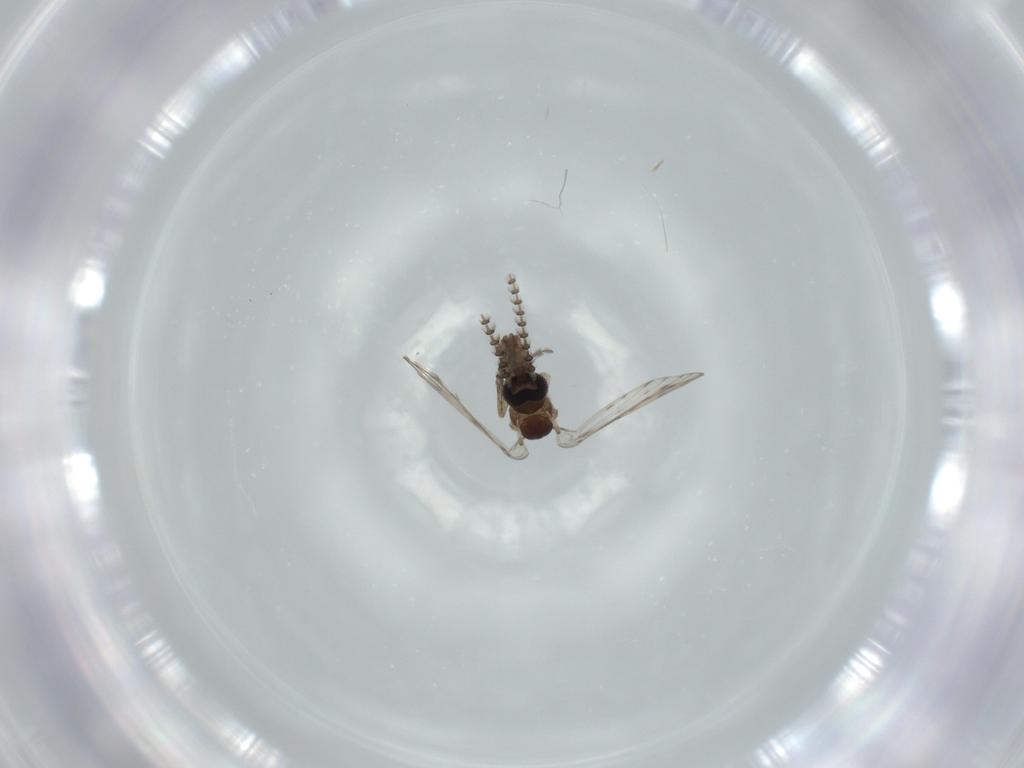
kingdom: Animalia
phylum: Arthropoda
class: Insecta
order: Diptera
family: Psychodidae
